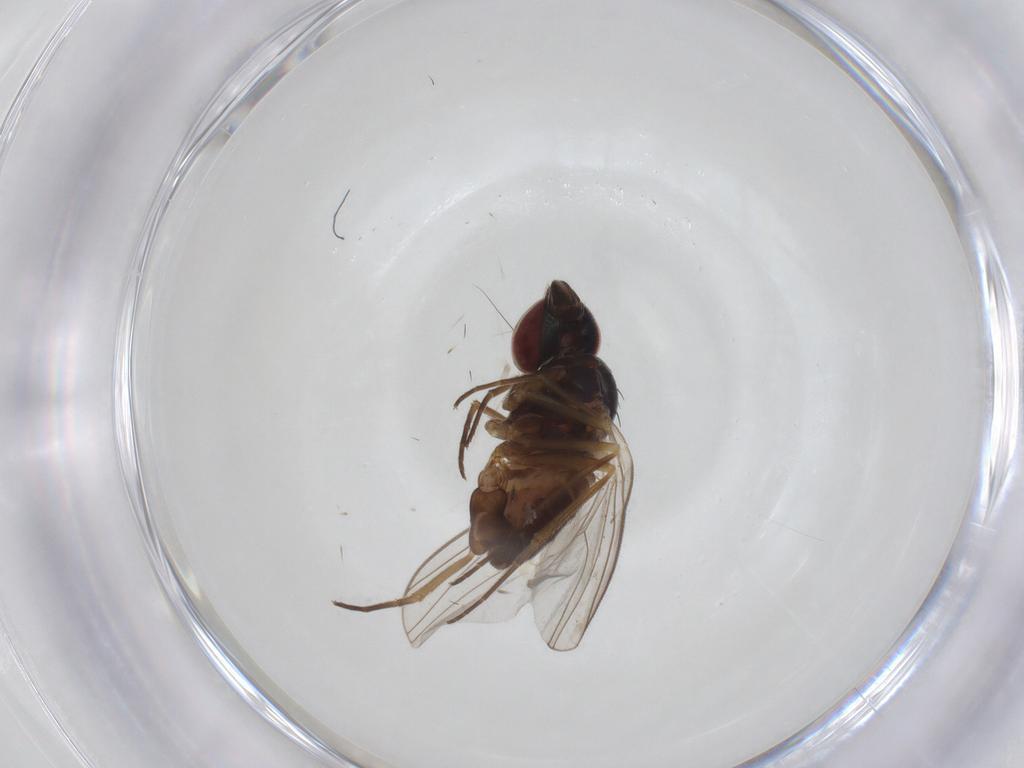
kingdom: Animalia
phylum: Arthropoda
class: Insecta
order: Diptera
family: Dolichopodidae
